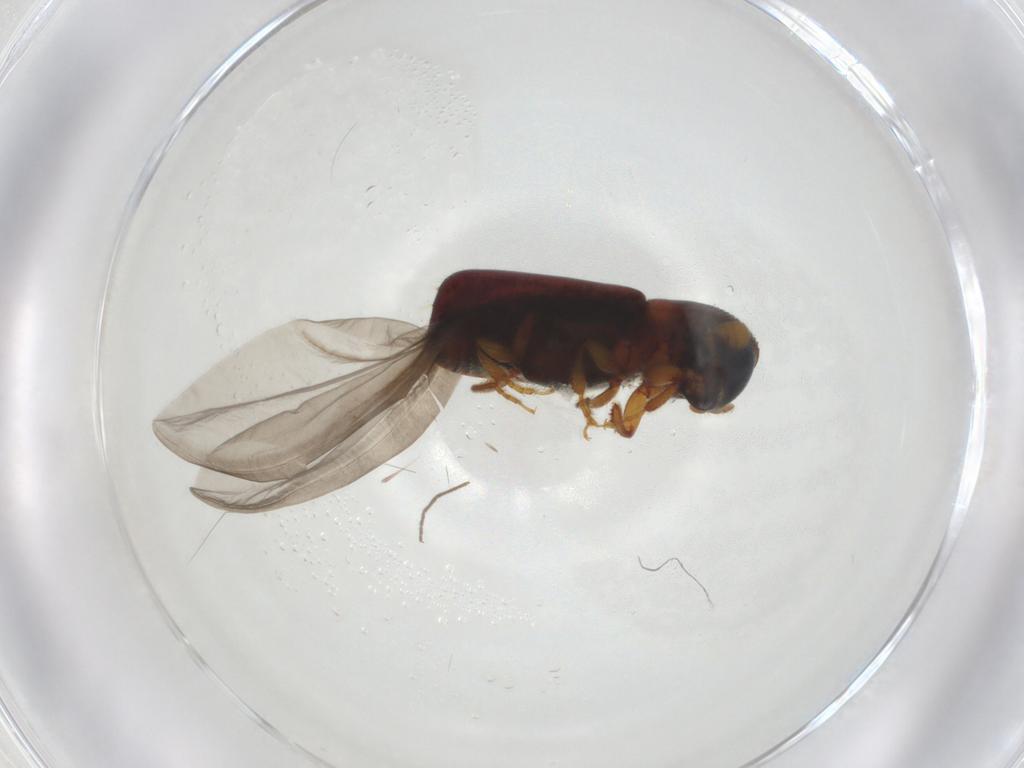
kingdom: Animalia
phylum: Arthropoda
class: Insecta
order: Coleoptera
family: Curculionidae
